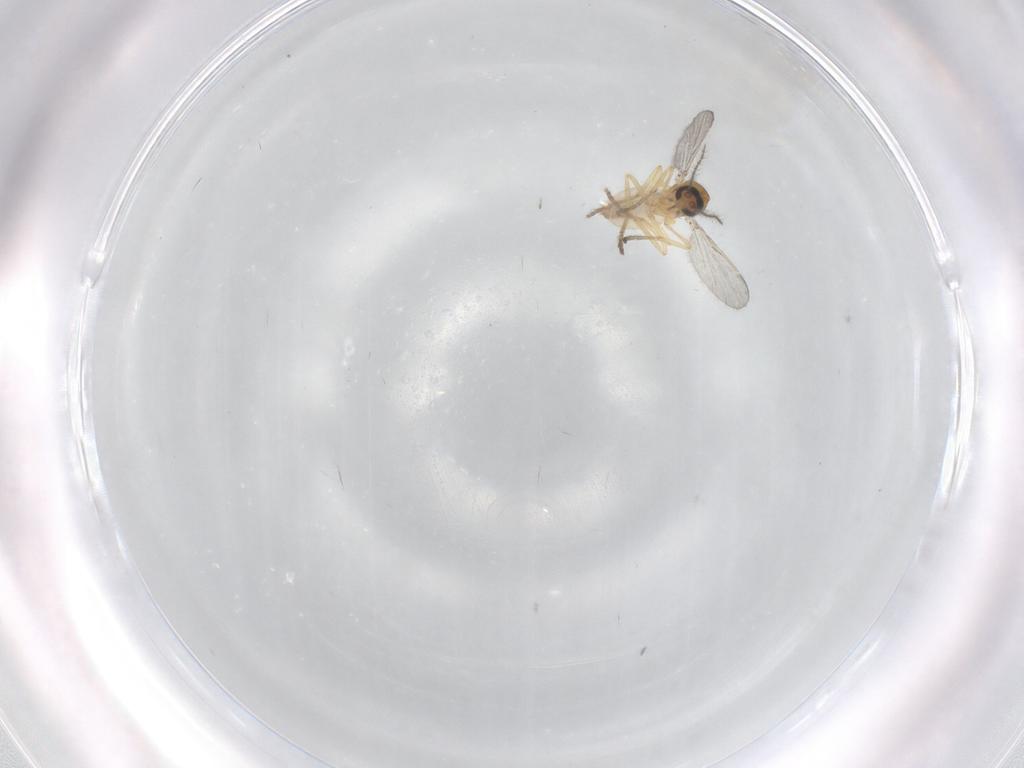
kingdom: Animalia
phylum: Arthropoda
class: Insecta
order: Diptera
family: Ceratopogonidae
